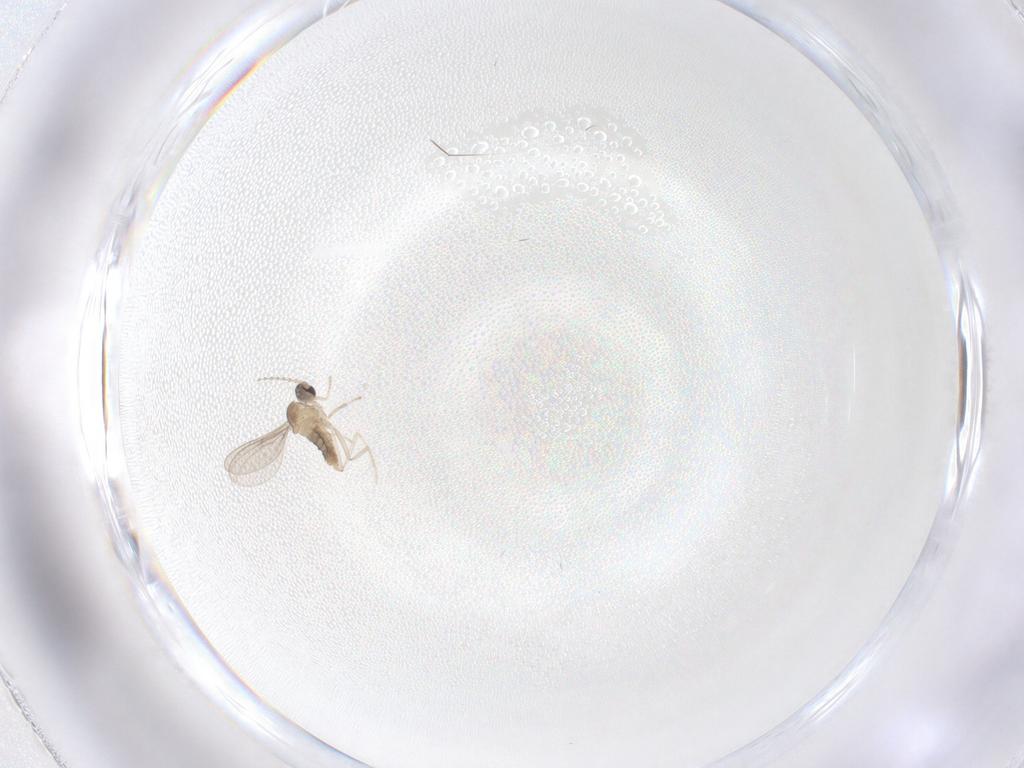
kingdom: Animalia
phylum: Arthropoda
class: Insecta
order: Diptera
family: Cecidomyiidae
